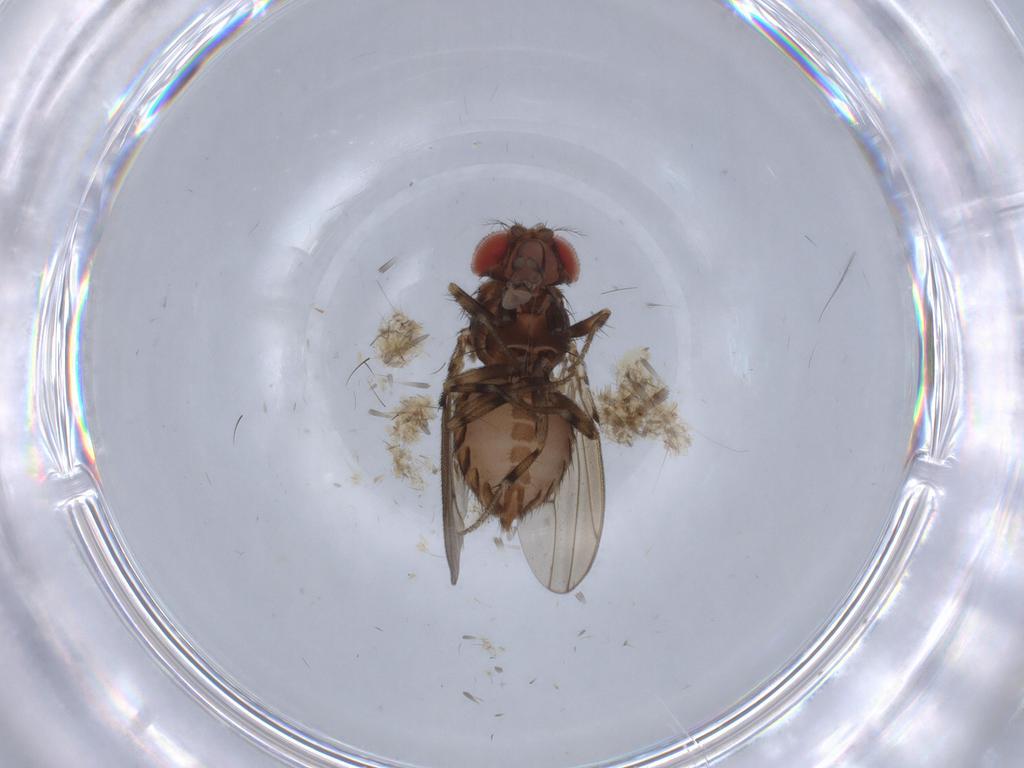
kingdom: Animalia
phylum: Arthropoda
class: Insecta
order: Diptera
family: Drosophilidae
